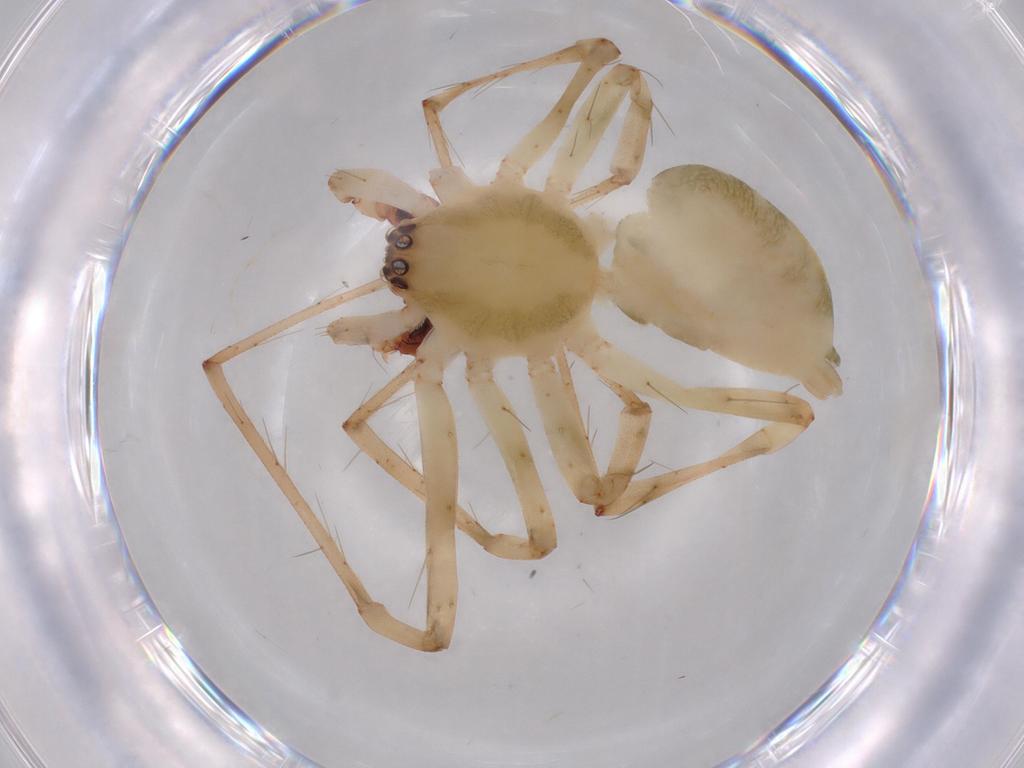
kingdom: Animalia
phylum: Arthropoda
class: Arachnida
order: Araneae
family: Anyphaenidae
